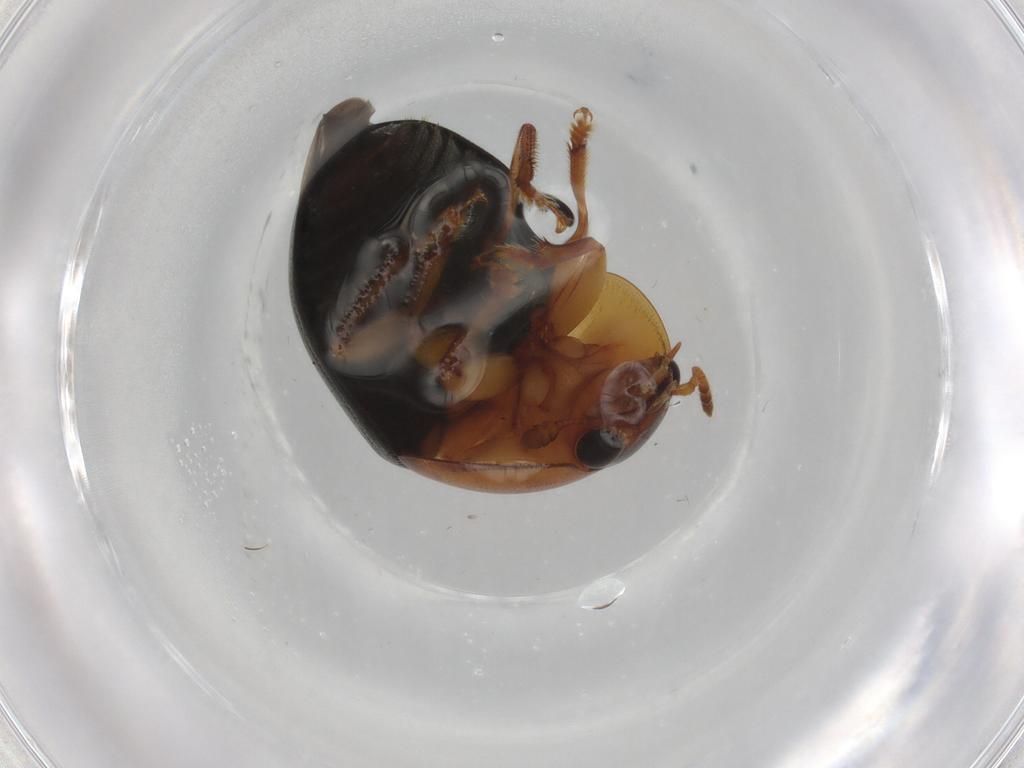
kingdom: Animalia
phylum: Arthropoda
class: Insecta
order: Coleoptera
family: Nitidulidae
